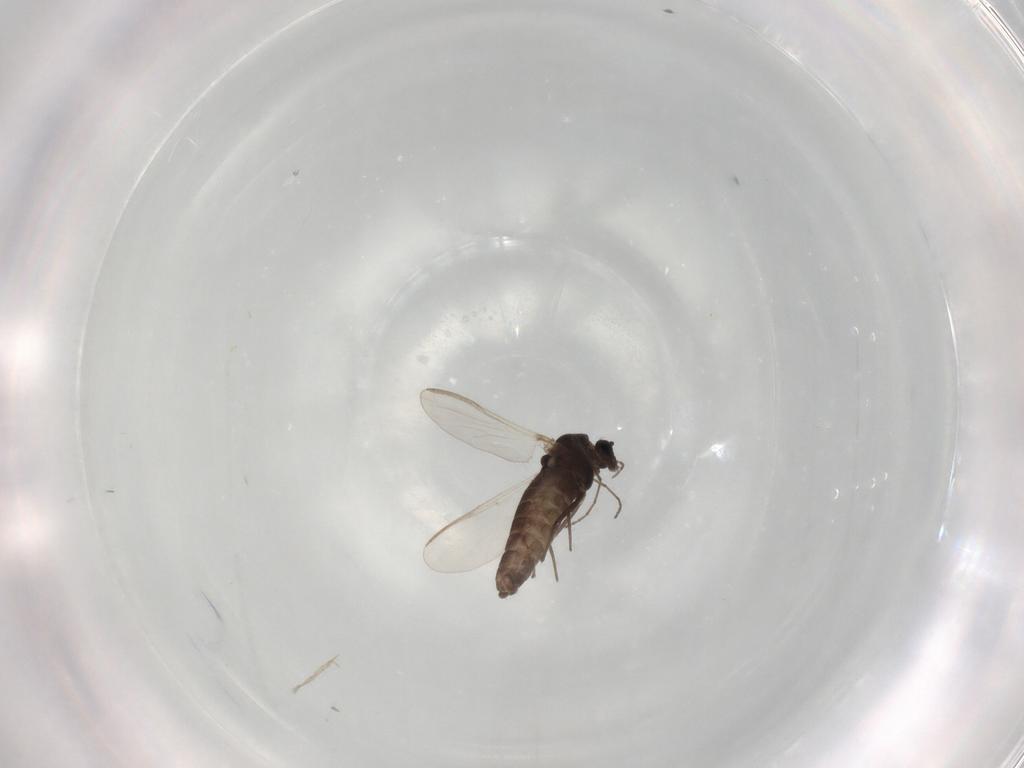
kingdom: Animalia
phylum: Arthropoda
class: Insecta
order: Diptera
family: Chironomidae
